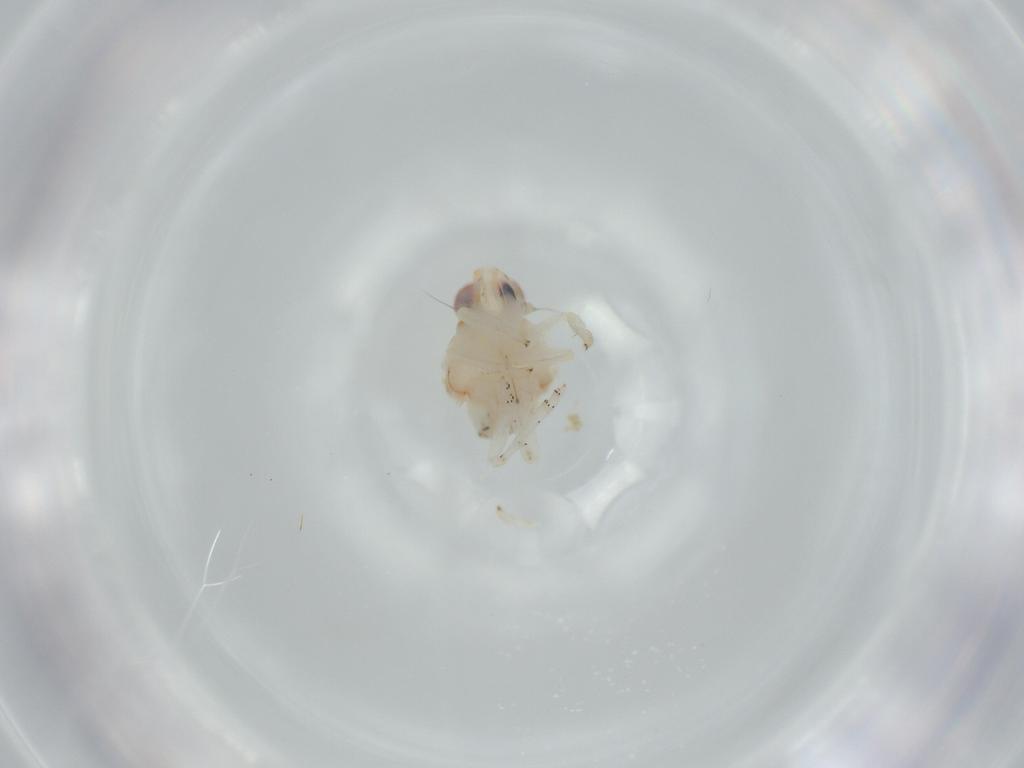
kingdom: Animalia
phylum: Arthropoda
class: Insecta
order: Hemiptera
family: Nogodinidae
